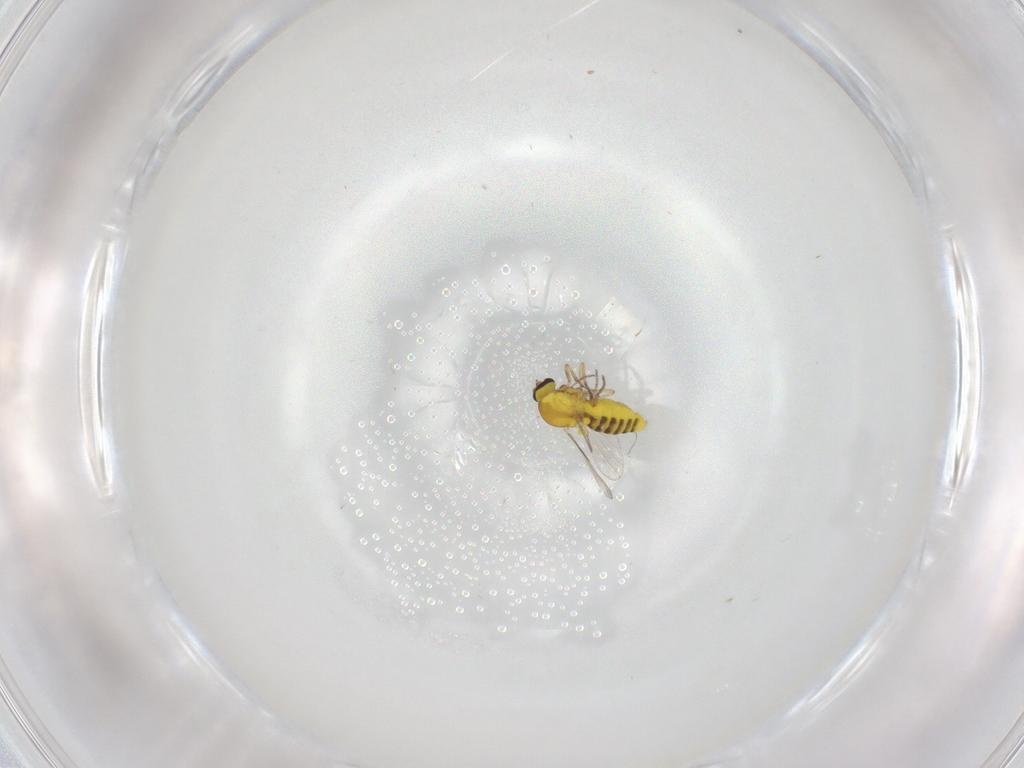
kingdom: Animalia
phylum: Arthropoda
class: Insecta
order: Diptera
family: Ceratopogonidae
